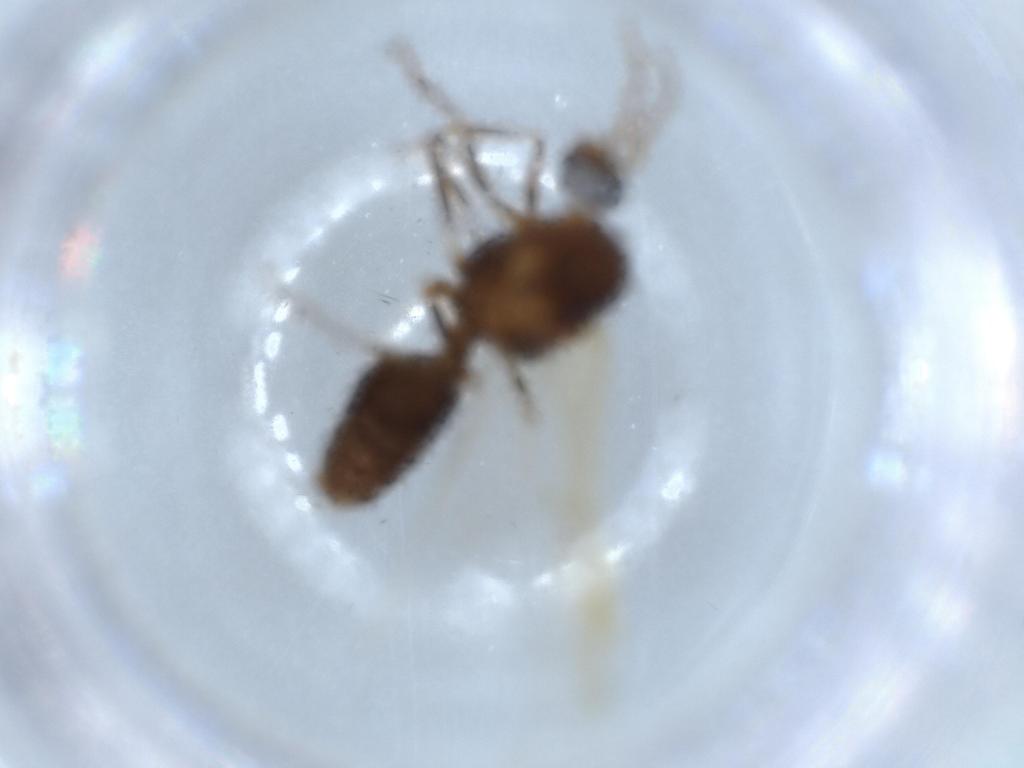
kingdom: Animalia
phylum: Arthropoda
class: Insecta
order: Hymenoptera
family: Formicidae
